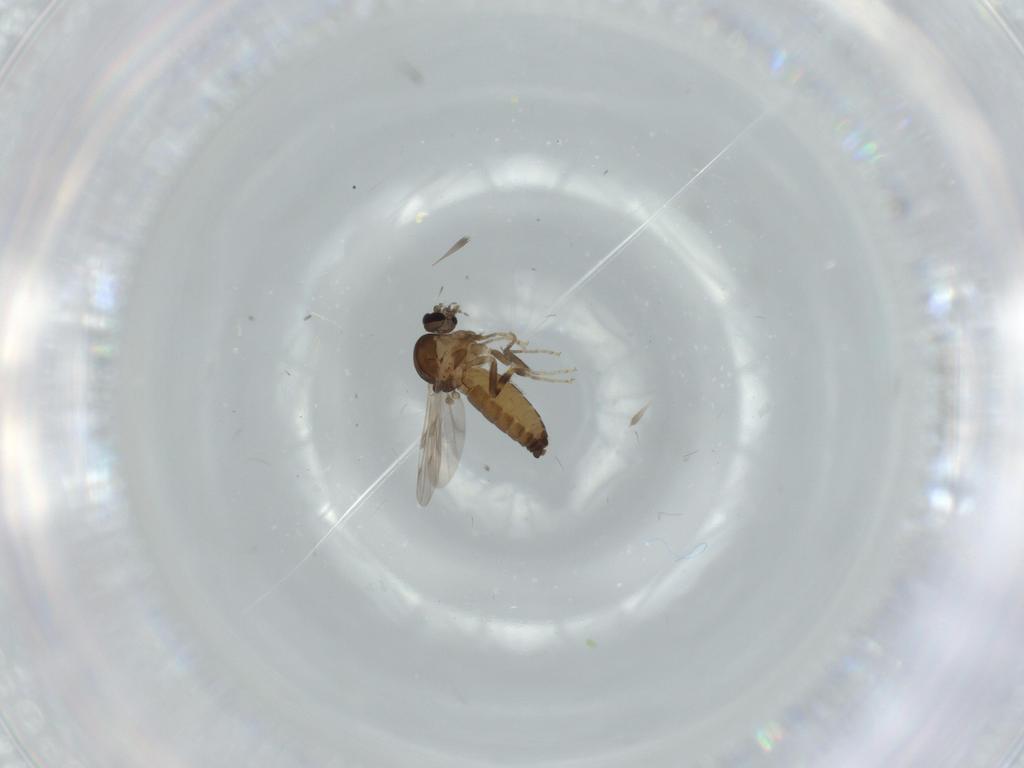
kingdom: Animalia
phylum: Arthropoda
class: Insecta
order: Diptera
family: Ceratopogonidae
